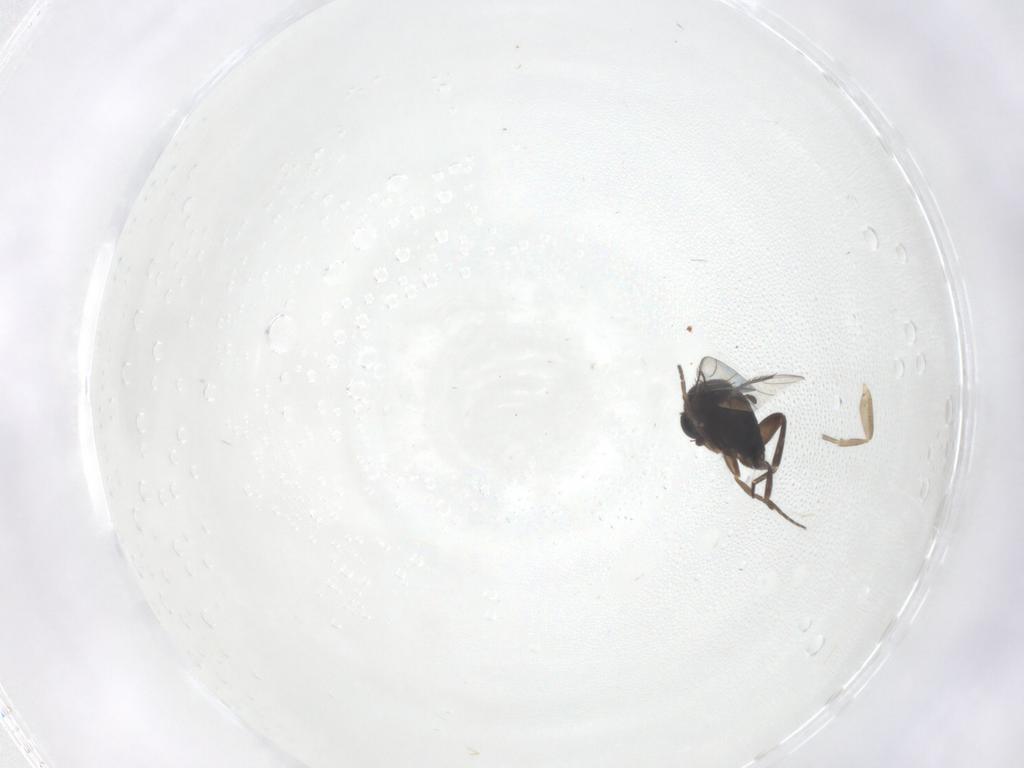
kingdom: Animalia
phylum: Arthropoda
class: Insecta
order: Diptera
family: Phoridae
